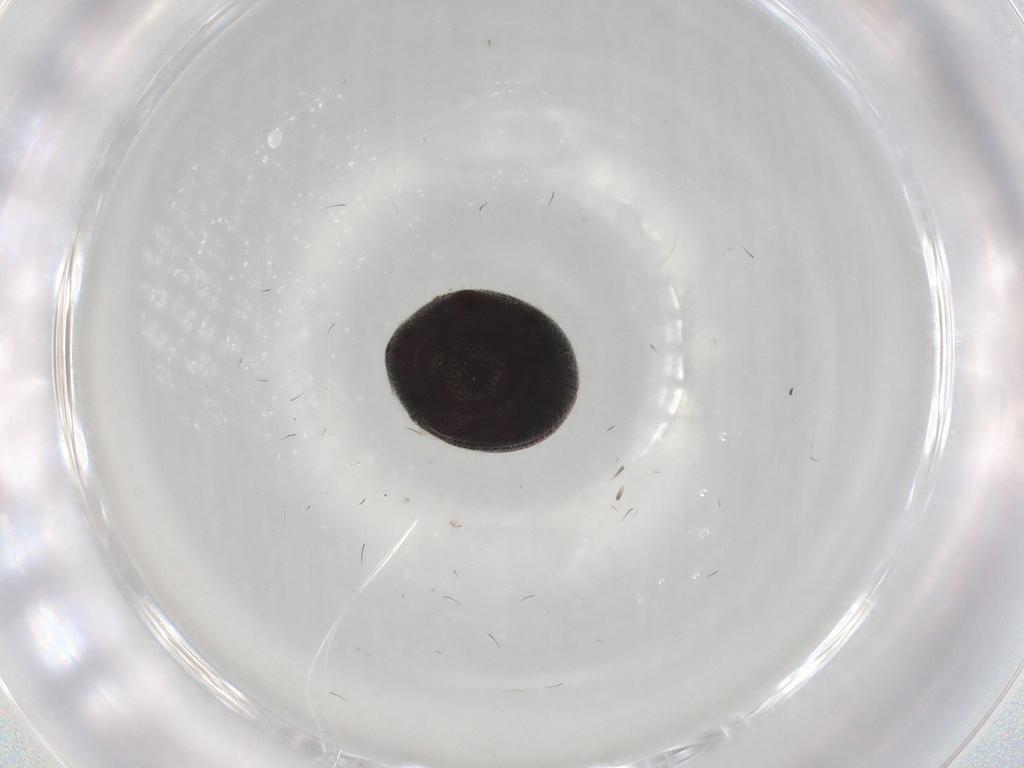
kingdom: Animalia
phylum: Arthropoda
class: Insecta
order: Coleoptera
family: Ptinidae
